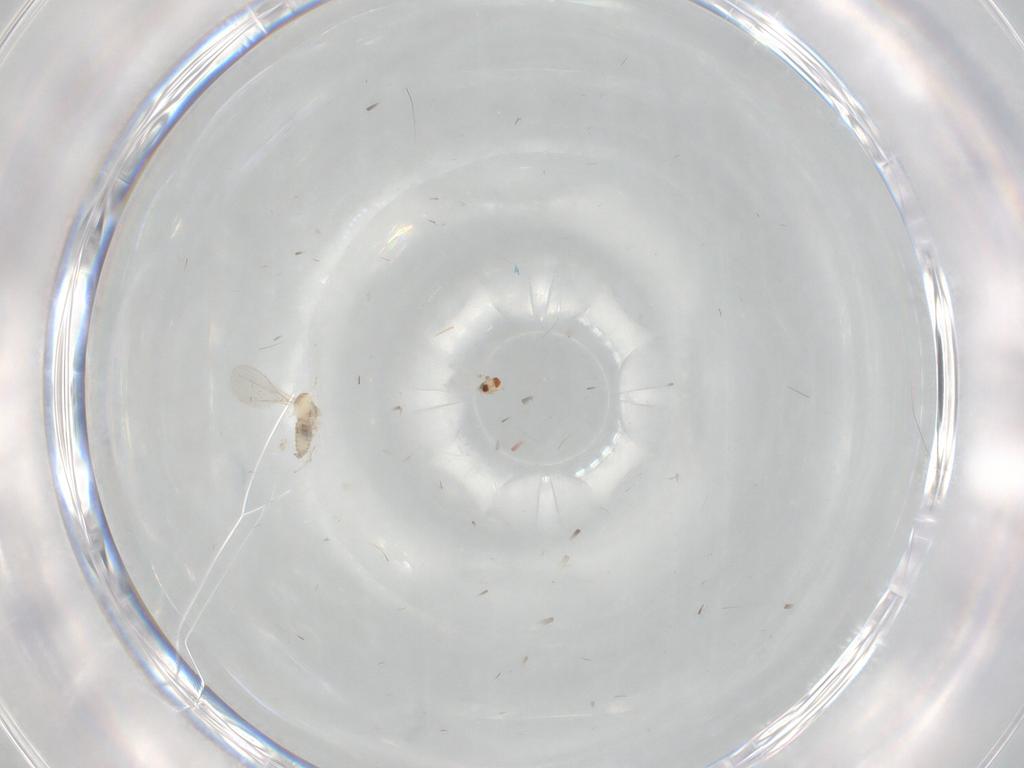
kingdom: Animalia
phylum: Arthropoda
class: Insecta
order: Diptera
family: Cecidomyiidae
